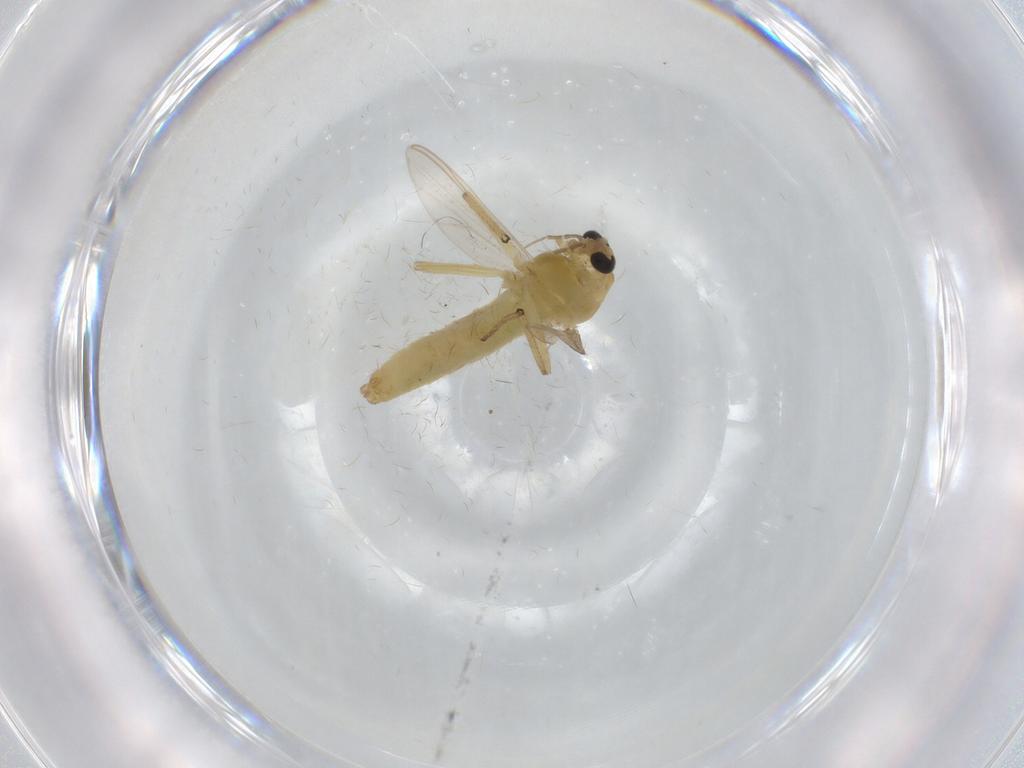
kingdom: Animalia
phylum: Arthropoda
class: Insecta
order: Diptera
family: Chironomidae
